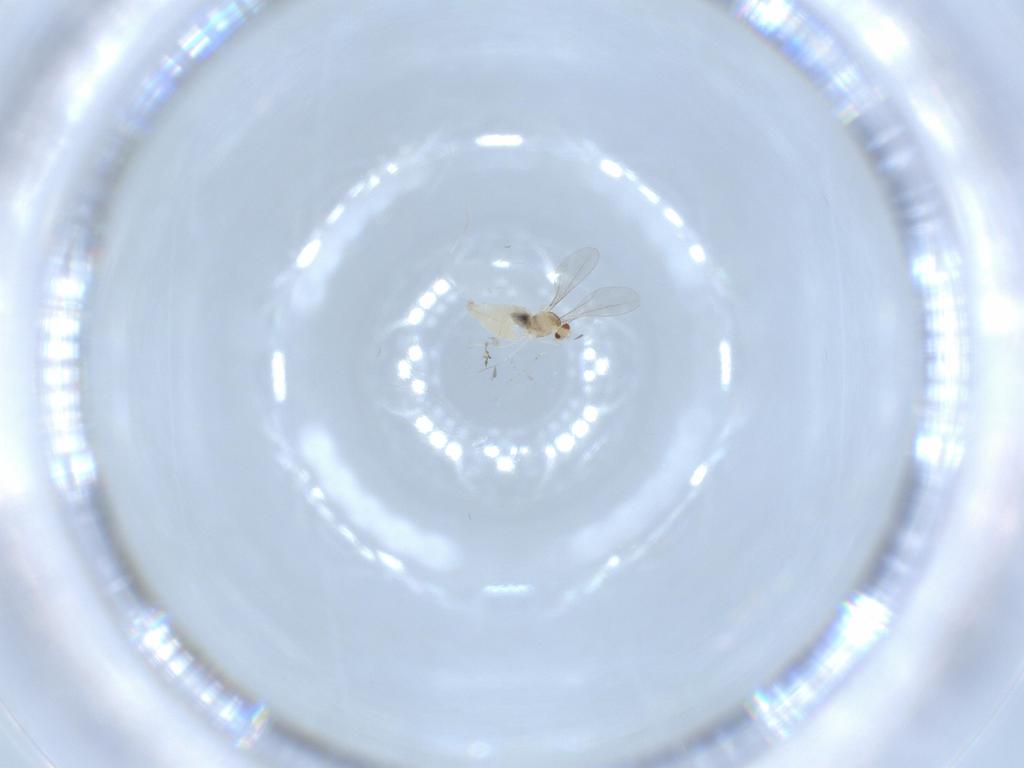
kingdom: Animalia
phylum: Arthropoda
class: Insecta
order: Diptera
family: Cecidomyiidae
